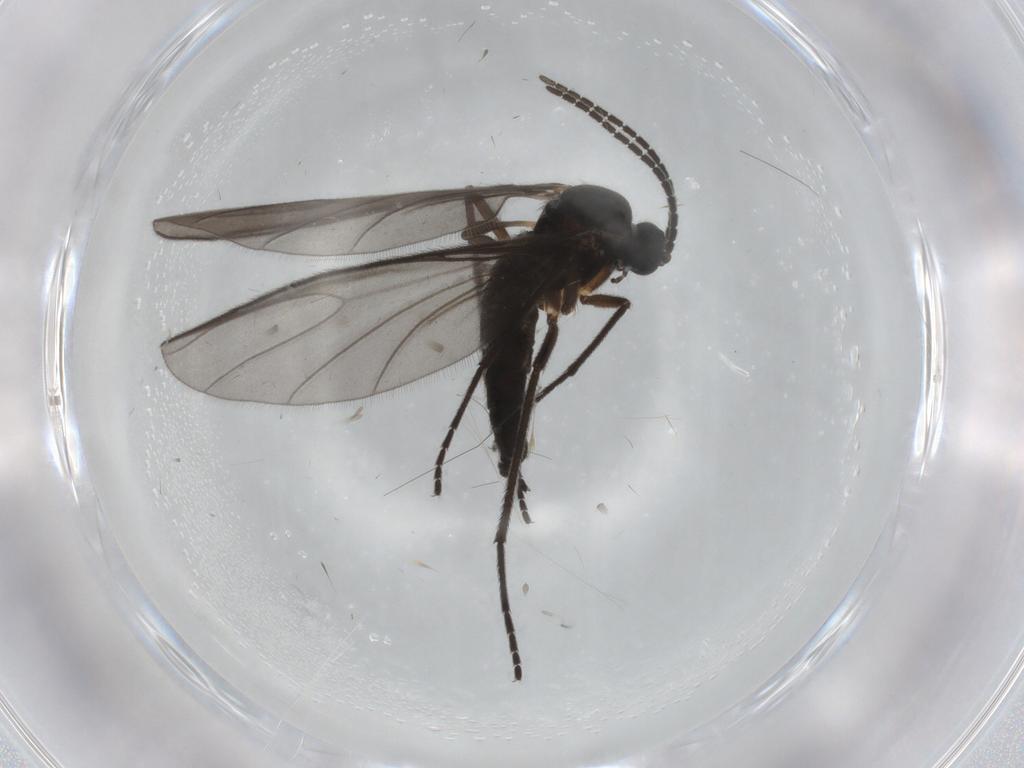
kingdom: Animalia
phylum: Arthropoda
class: Insecta
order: Diptera
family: Sciaridae
